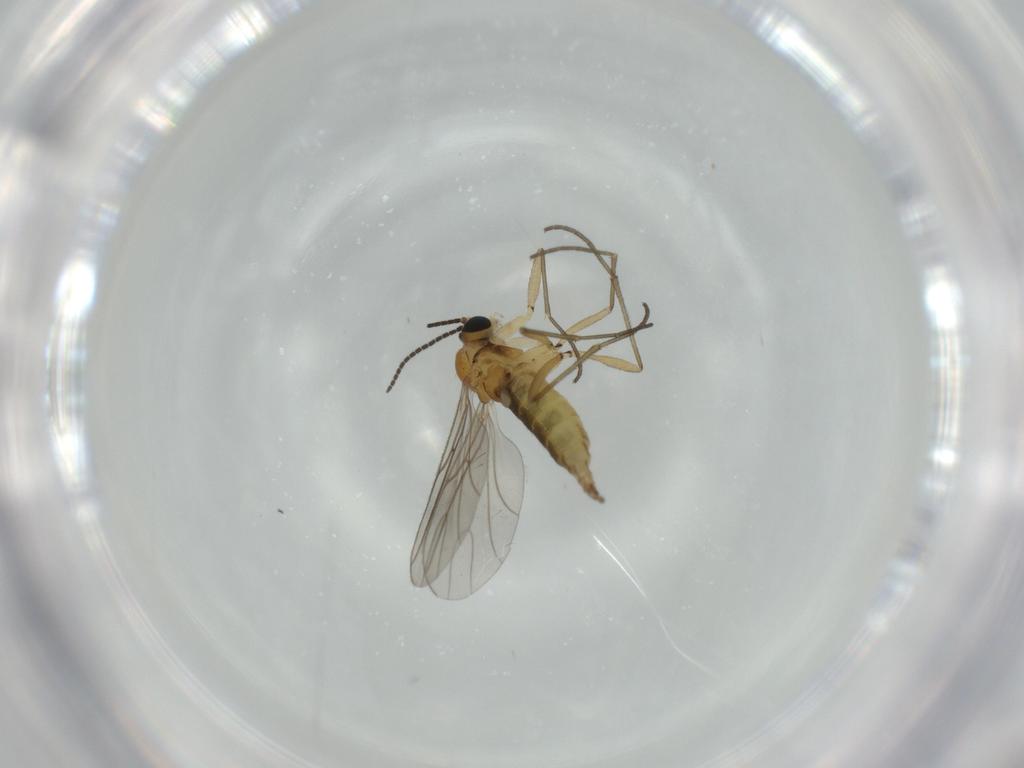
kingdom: Animalia
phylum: Arthropoda
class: Insecta
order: Diptera
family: Sciaridae
